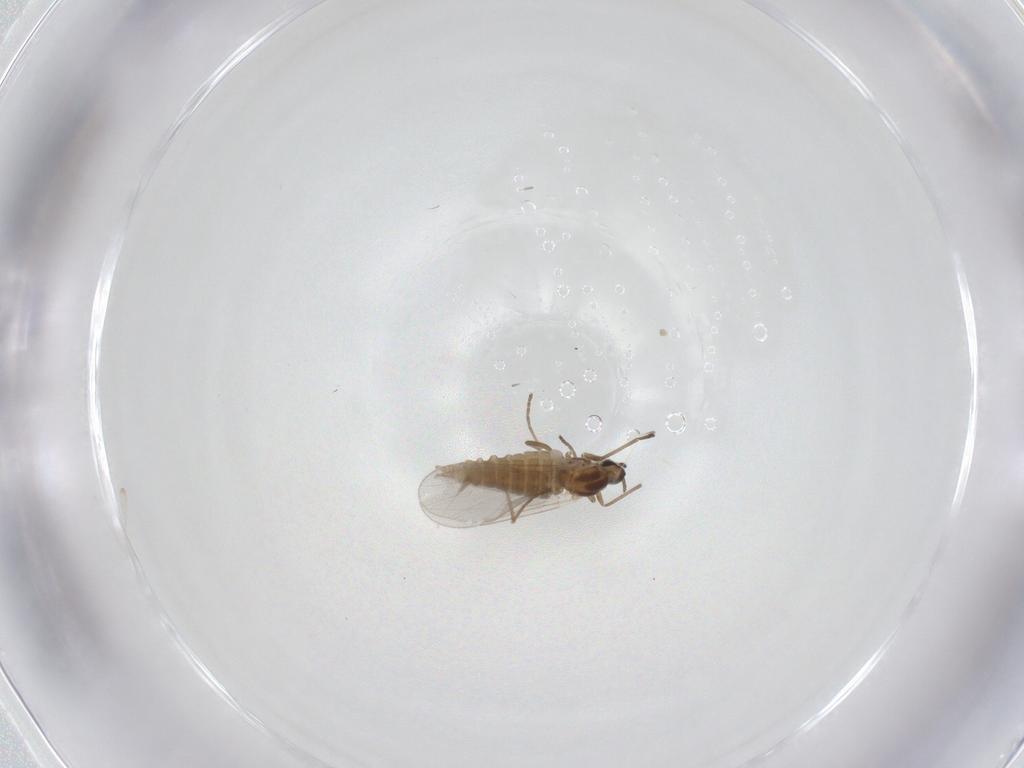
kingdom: Animalia
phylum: Arthropoda
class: Insecta
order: Diptera
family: Cecidomyiidae
